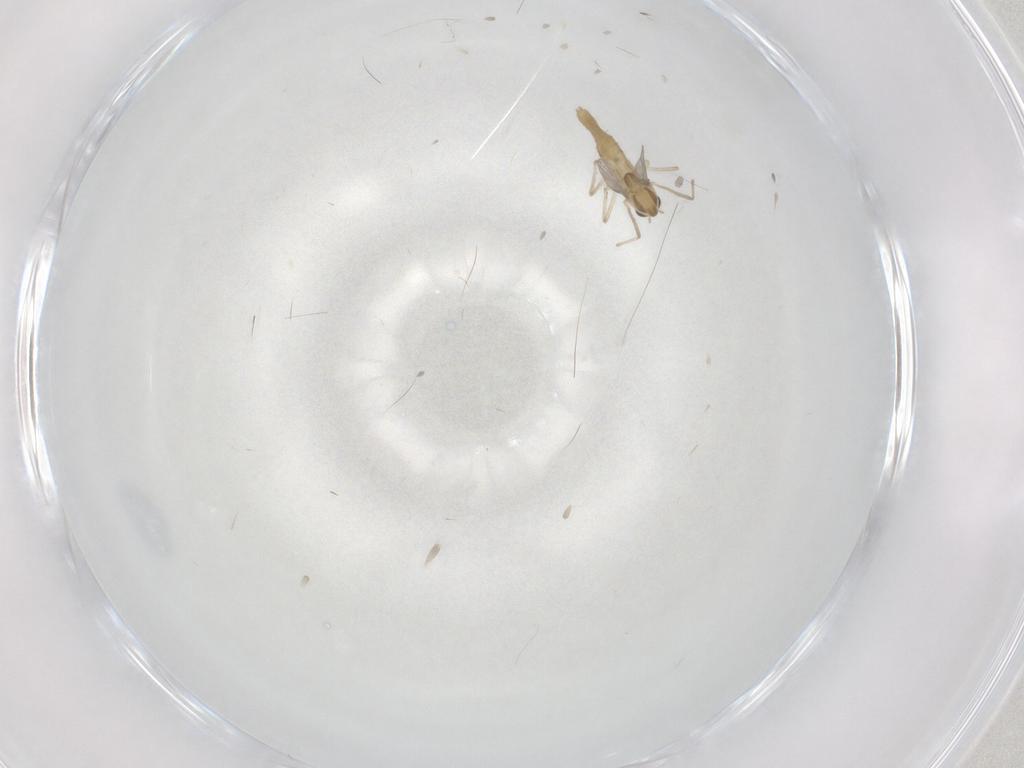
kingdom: Animalia
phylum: Arthropoda
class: Insecta
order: Diptera
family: Chironomidae
